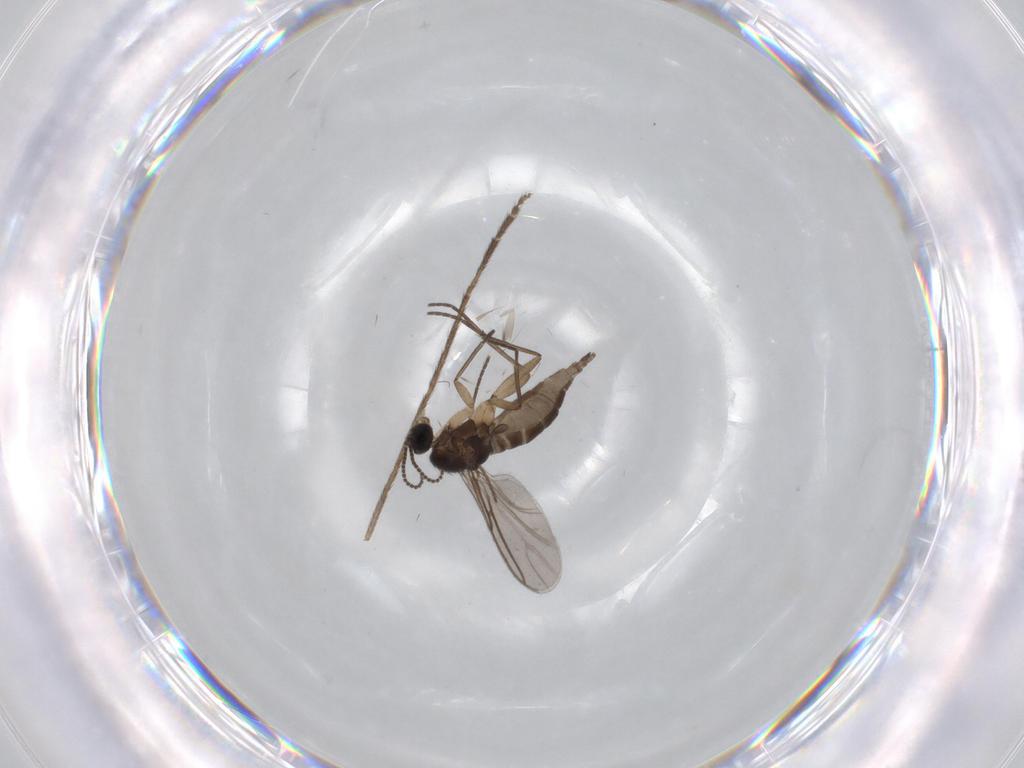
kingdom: Animalia
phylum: Arthropoda
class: Insecta
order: Diptera
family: Sciaridae
